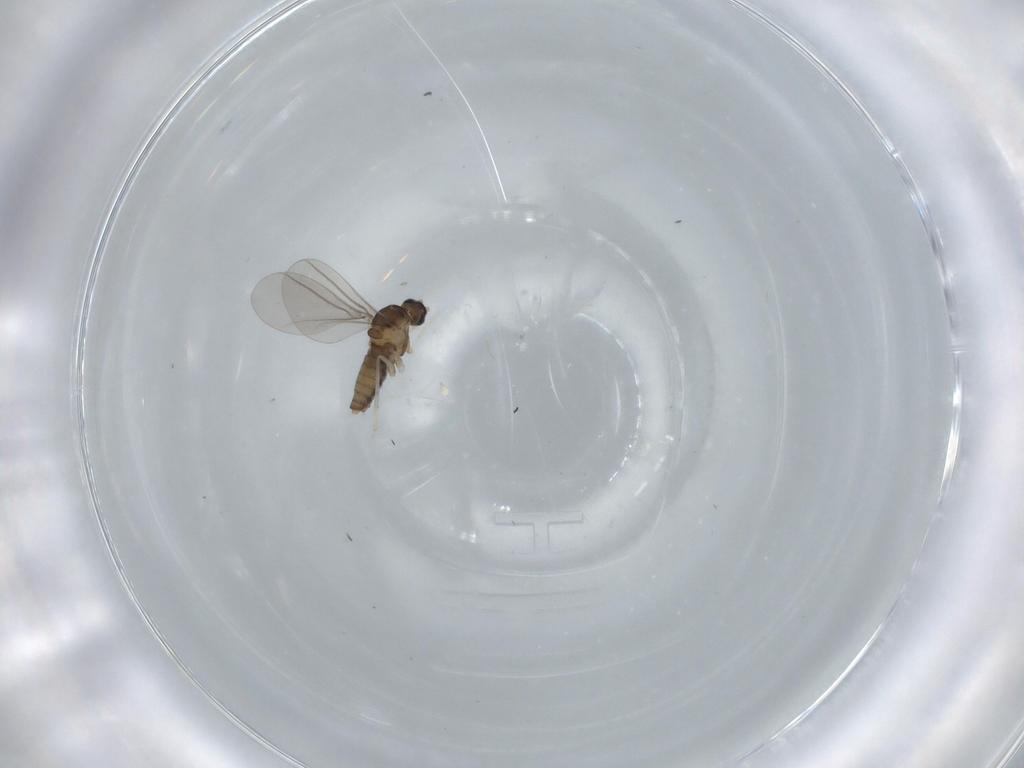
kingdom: Animalia
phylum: Arthropoda
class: Insecta
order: Diptera
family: Cecidomyiidae
